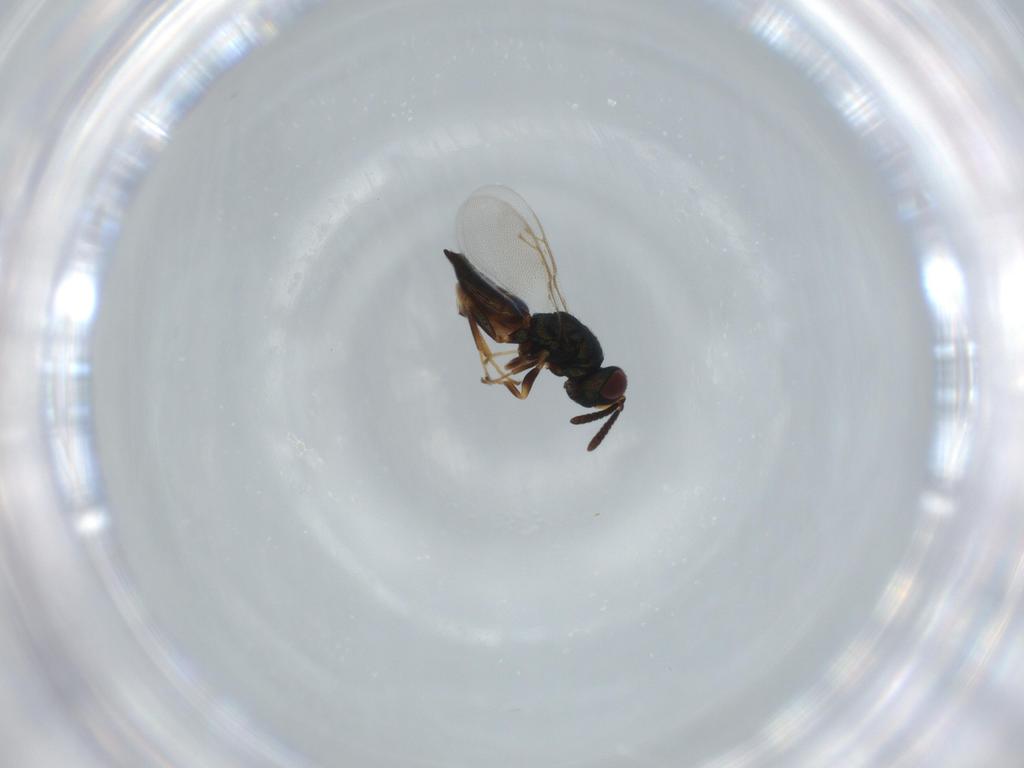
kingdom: Animalia
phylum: Arthropoda
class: Insecta
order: Hymenoptera
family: Pteromalidae
